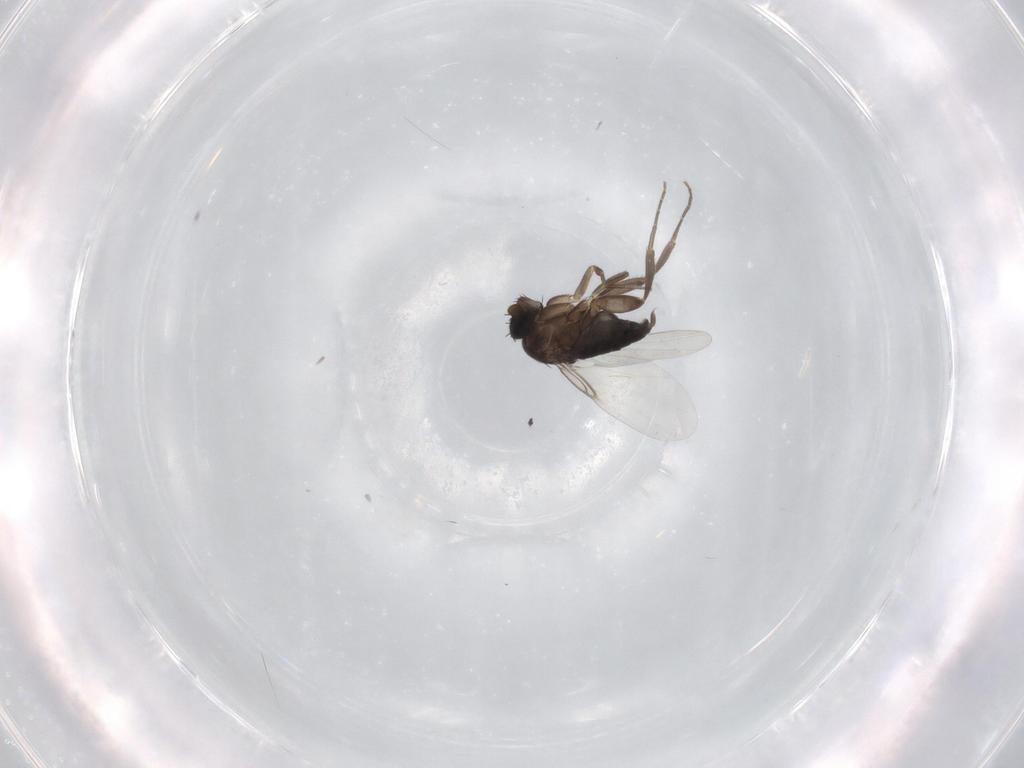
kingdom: Animalia
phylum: Arthropoda
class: Insecta
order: Diptera
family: Phoridae
